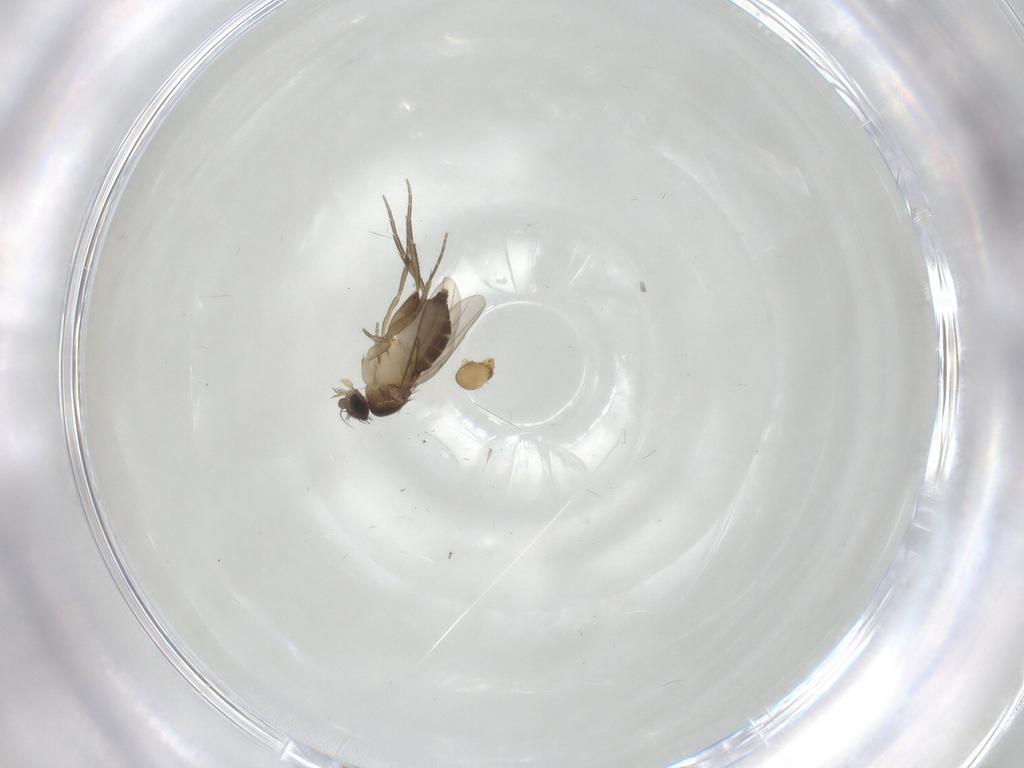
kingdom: Animalia
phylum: Arthropoda
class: Insecta
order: Diptera
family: Phoridae
